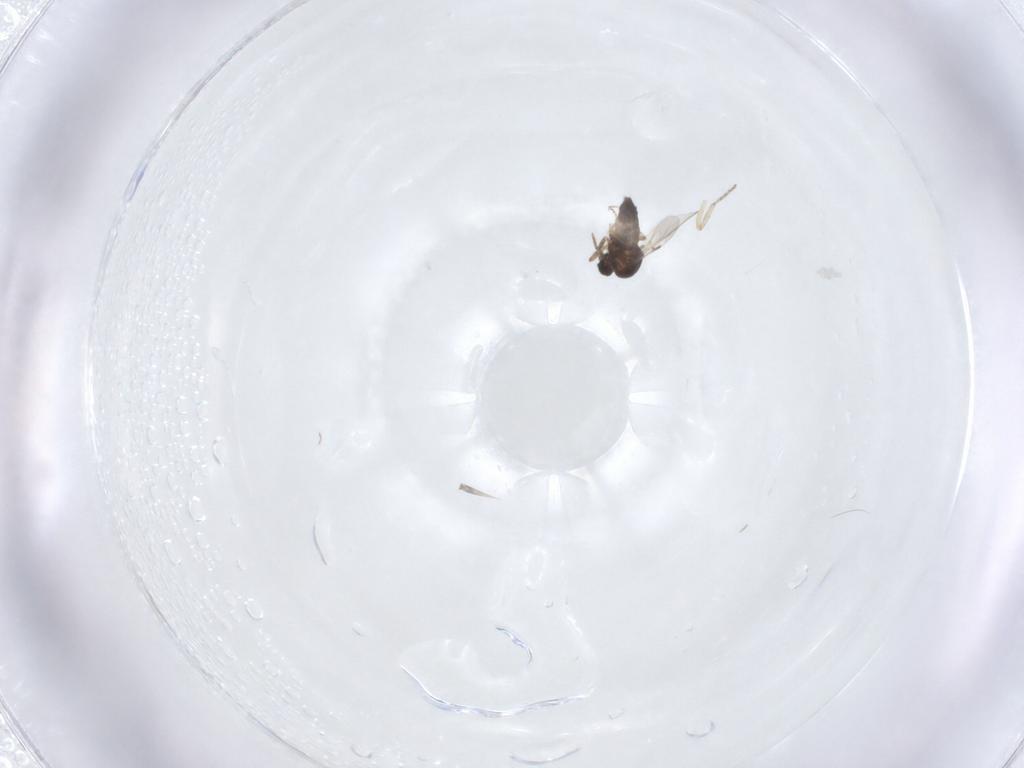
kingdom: Animalia
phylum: Arthropoda
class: Insecta
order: Diptera
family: Ceratopogonidae
